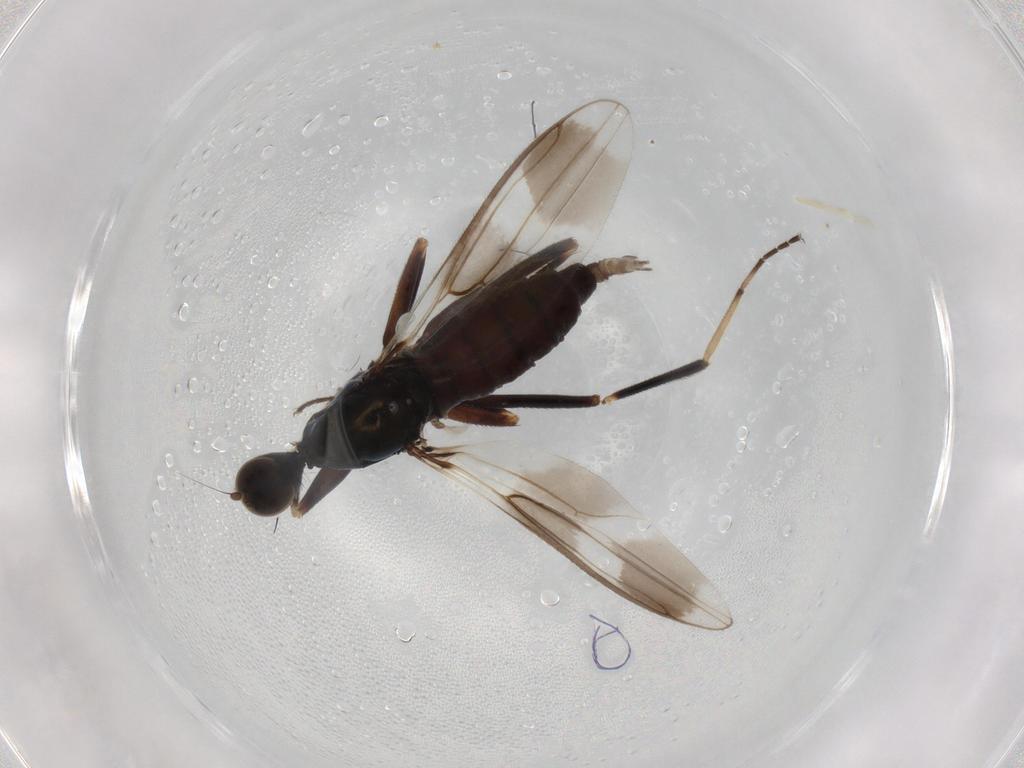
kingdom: Animalia
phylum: Arthropoda
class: Insecta
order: Diptera
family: Hybotidae
